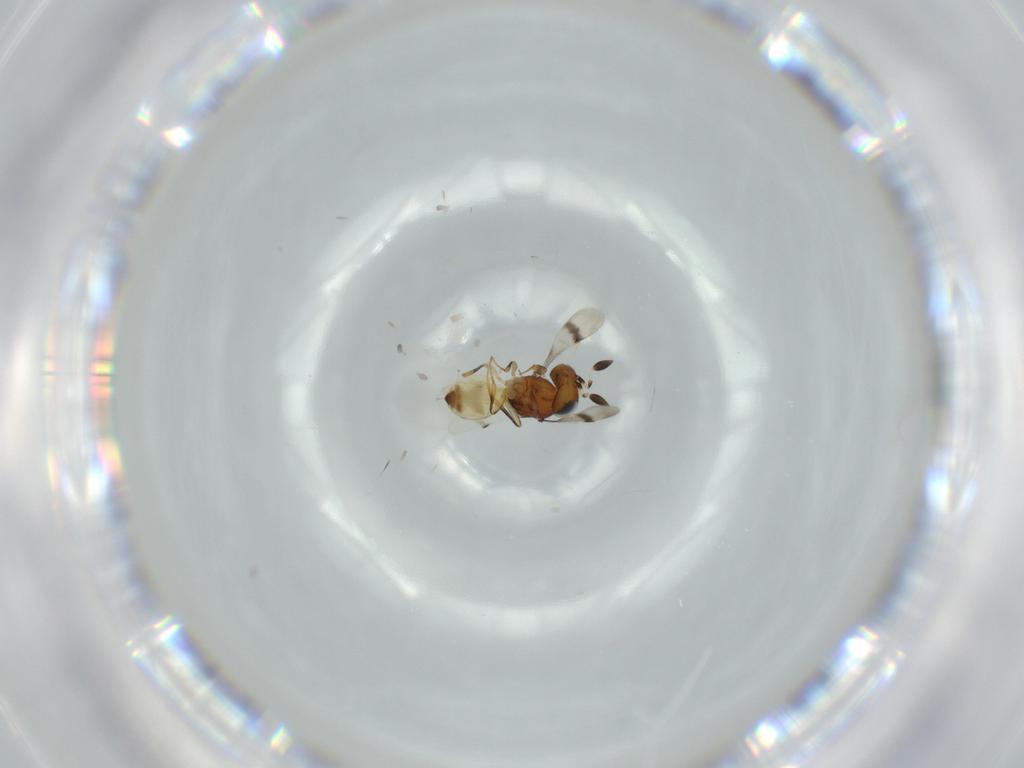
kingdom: Animalia
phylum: Arthropoda
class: Arachnida
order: Araneae
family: Pholcidae
